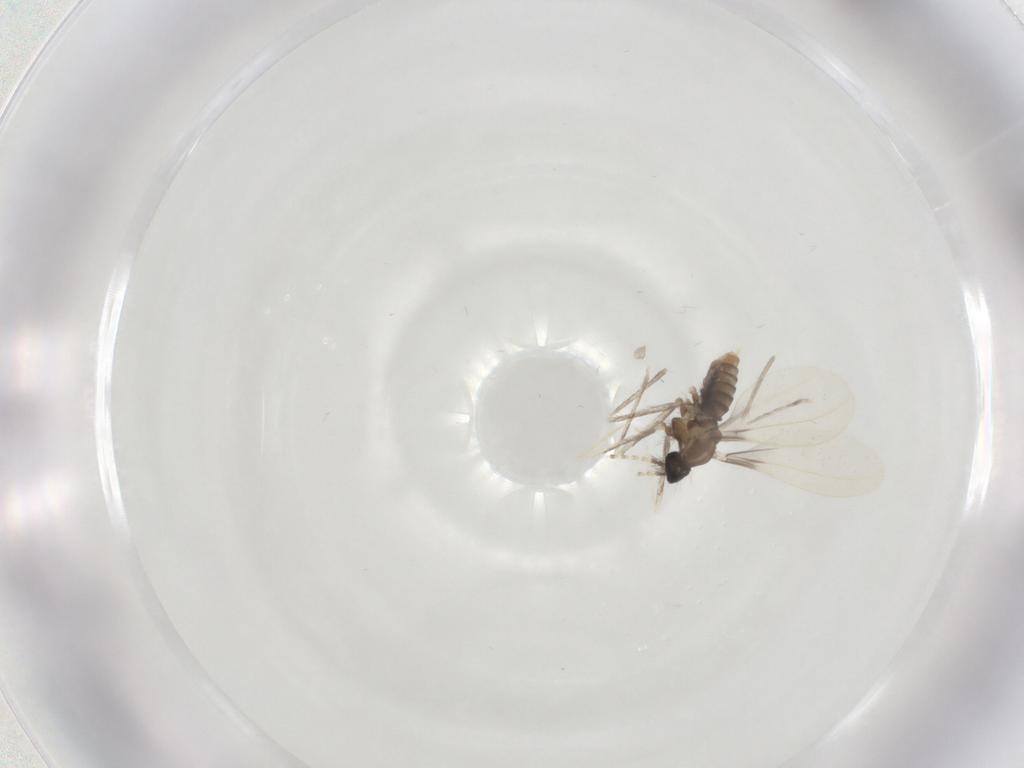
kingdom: Animalia
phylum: Arthropoda
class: Insecta
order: Diptera
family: Cecidomyiidae
